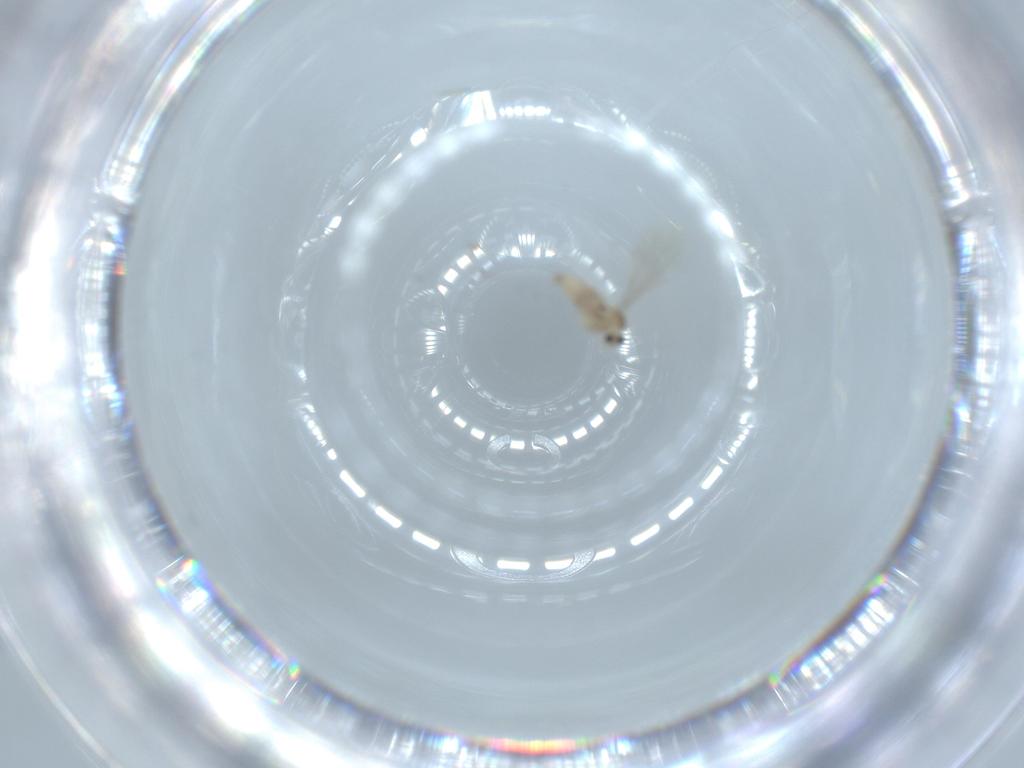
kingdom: Animalia
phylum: Arthropoda
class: Insecta
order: Diptera
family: Cecidomyiidae
